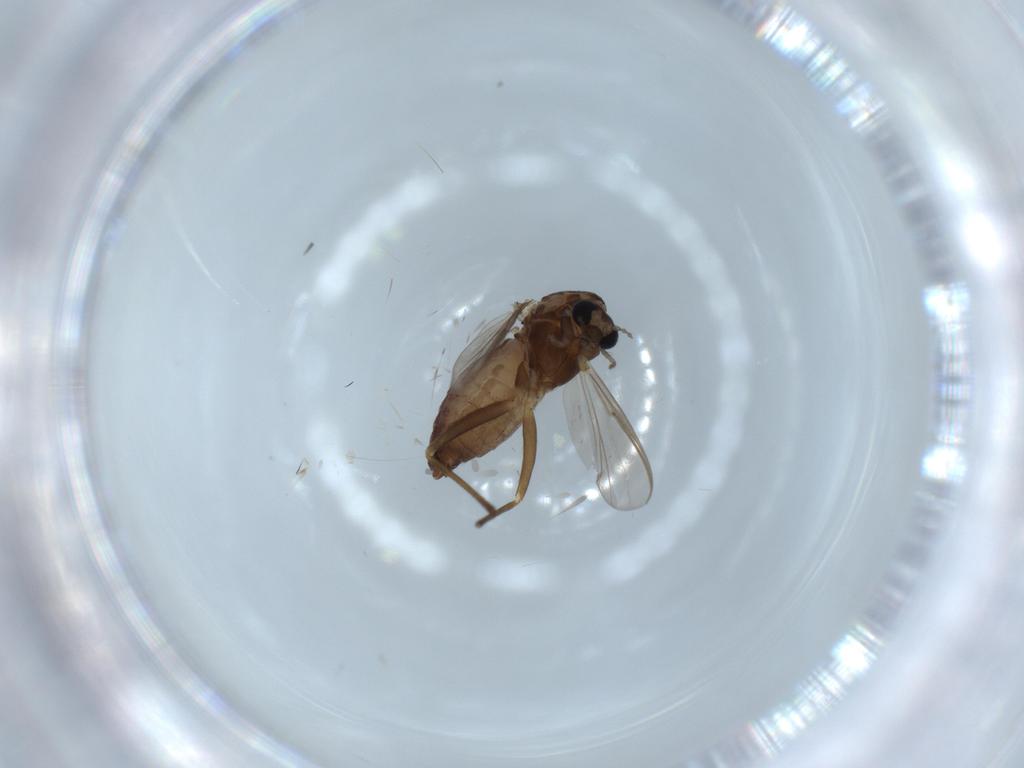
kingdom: Animalia
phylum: Arthropoda
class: Insecta
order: Diptera
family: Chironomidae
